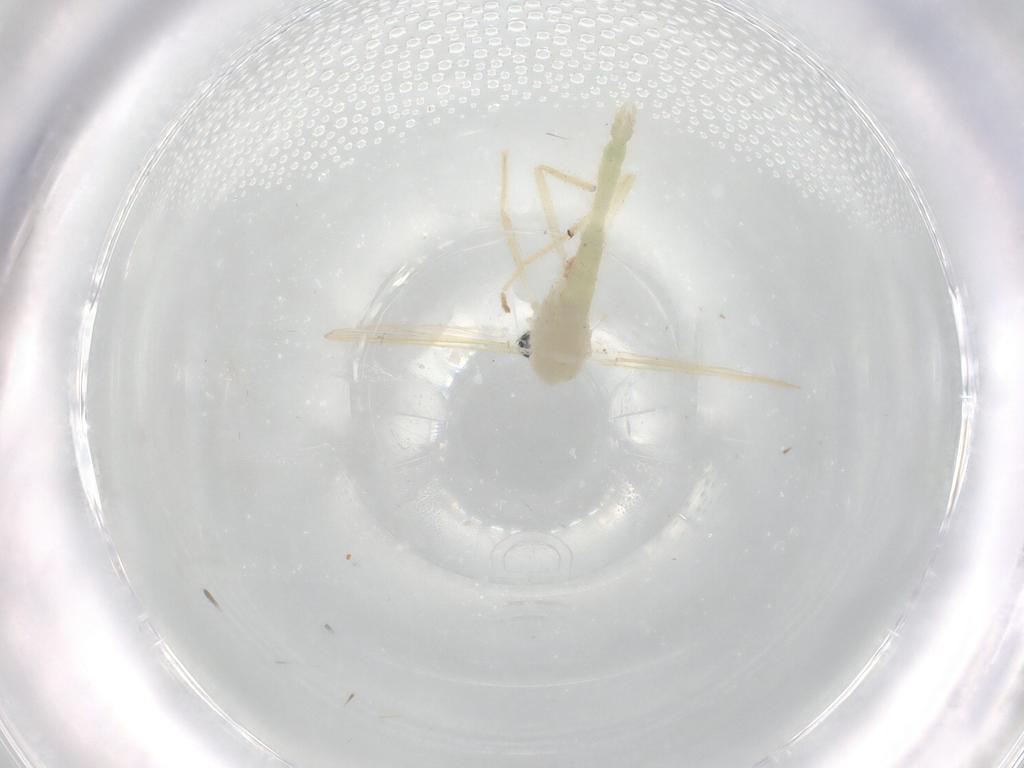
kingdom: Animalia
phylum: Arthropoda
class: Insecta
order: Diptera
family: Chironomidae
